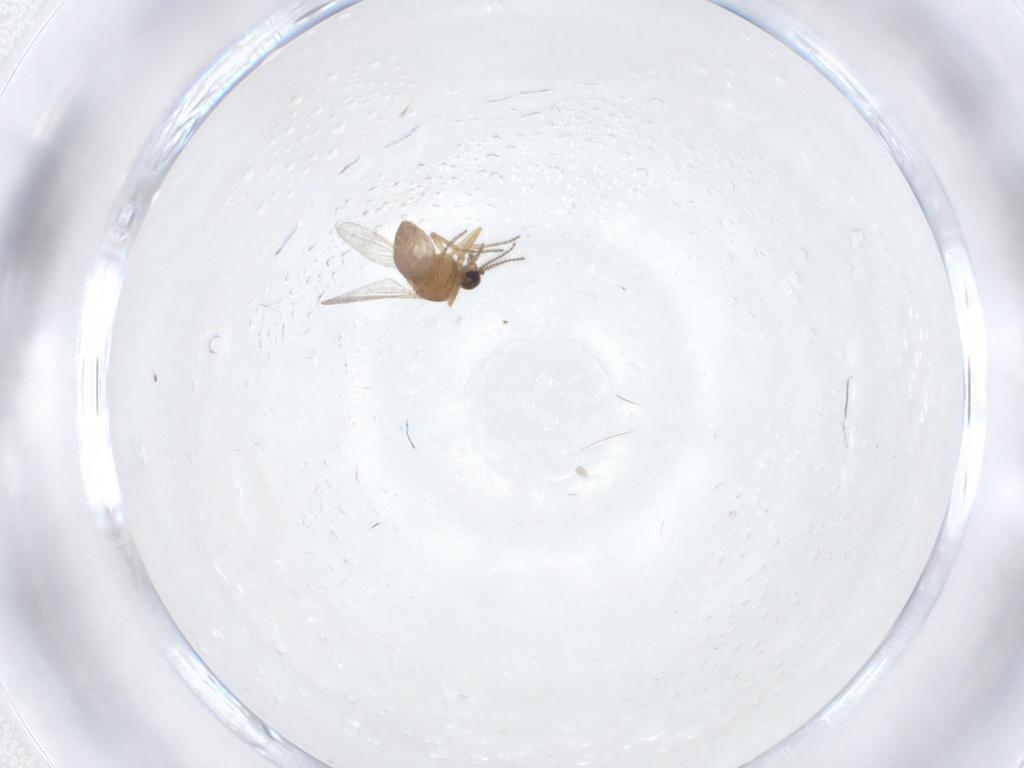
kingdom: Animalia
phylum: Arthropoda
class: Insecta
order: Diptera
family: Ceratopogonidae
